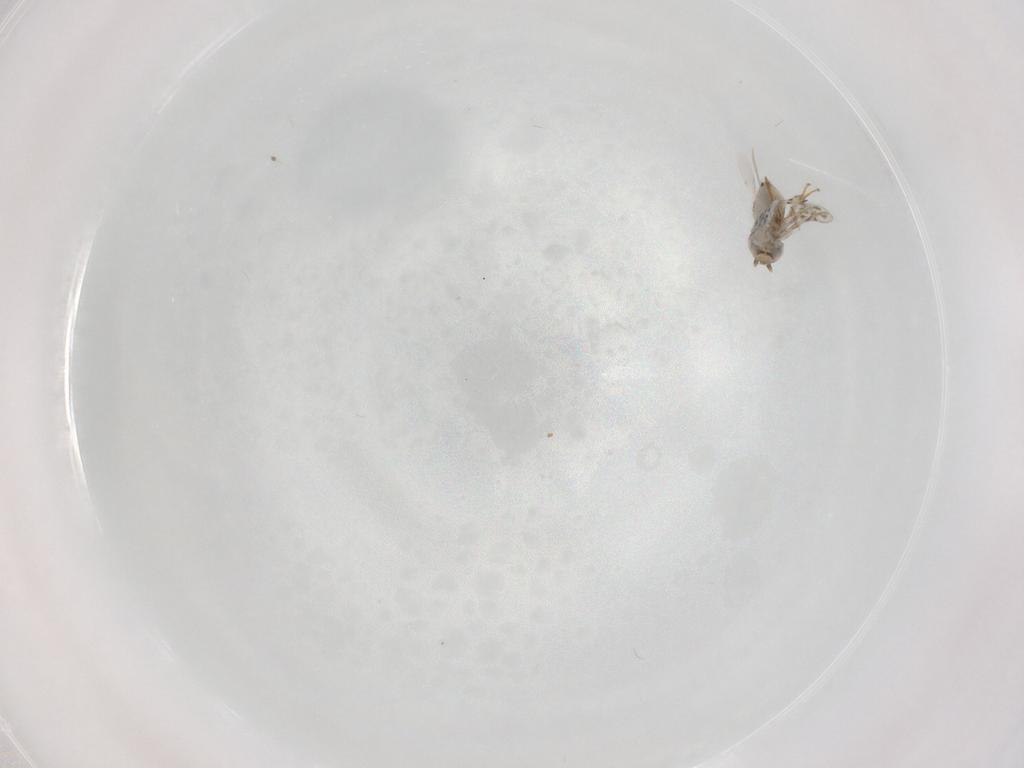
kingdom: Animalia
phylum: Arthropoda
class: Insecta
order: Hymenoptera
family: Aphelinidae
